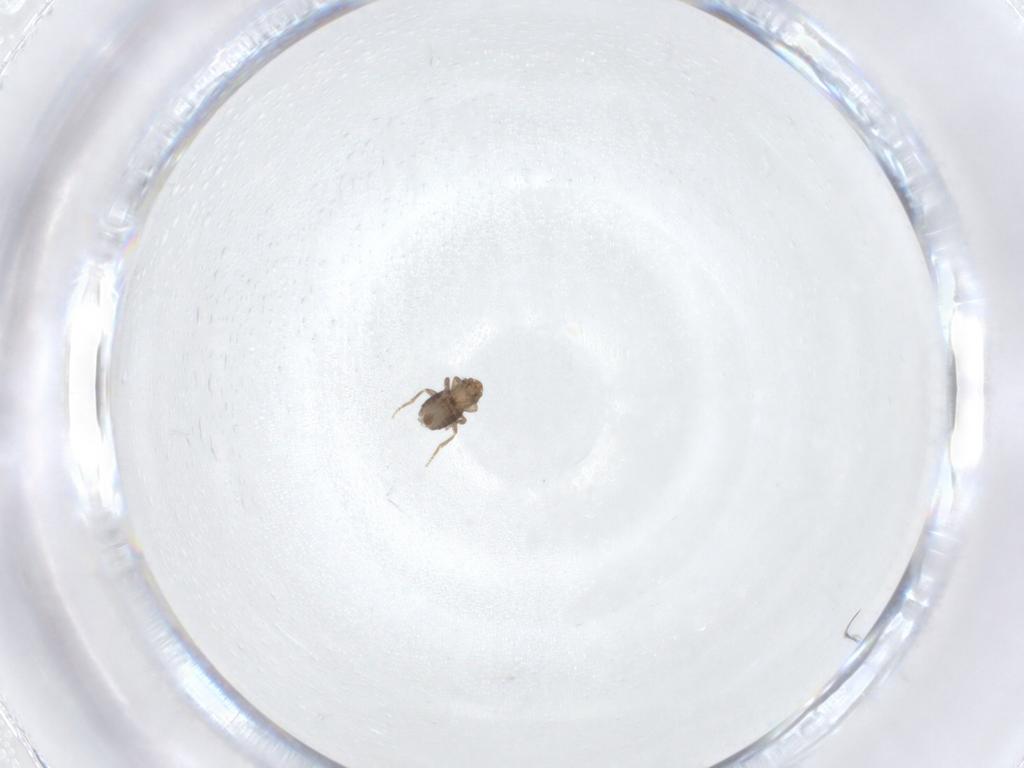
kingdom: Animalia
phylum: Arthropoda
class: Insecta
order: Diptera
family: Phoridae
